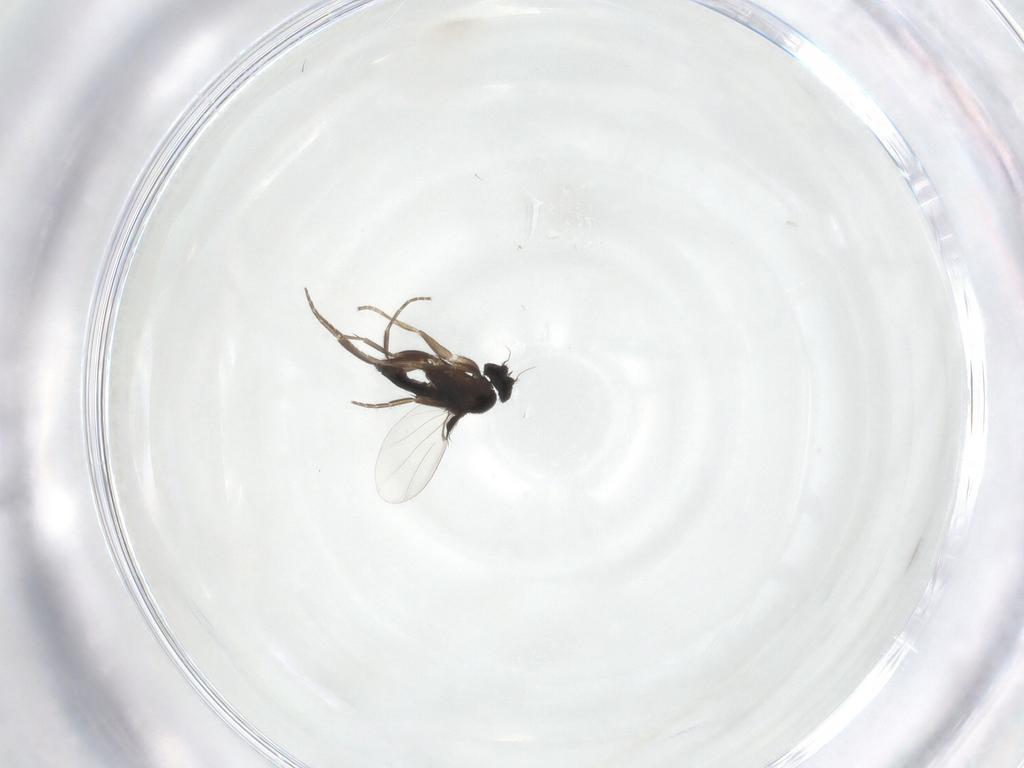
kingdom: Animalia
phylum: Arthropoda
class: Insecta
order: Diptera
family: Phoridae
